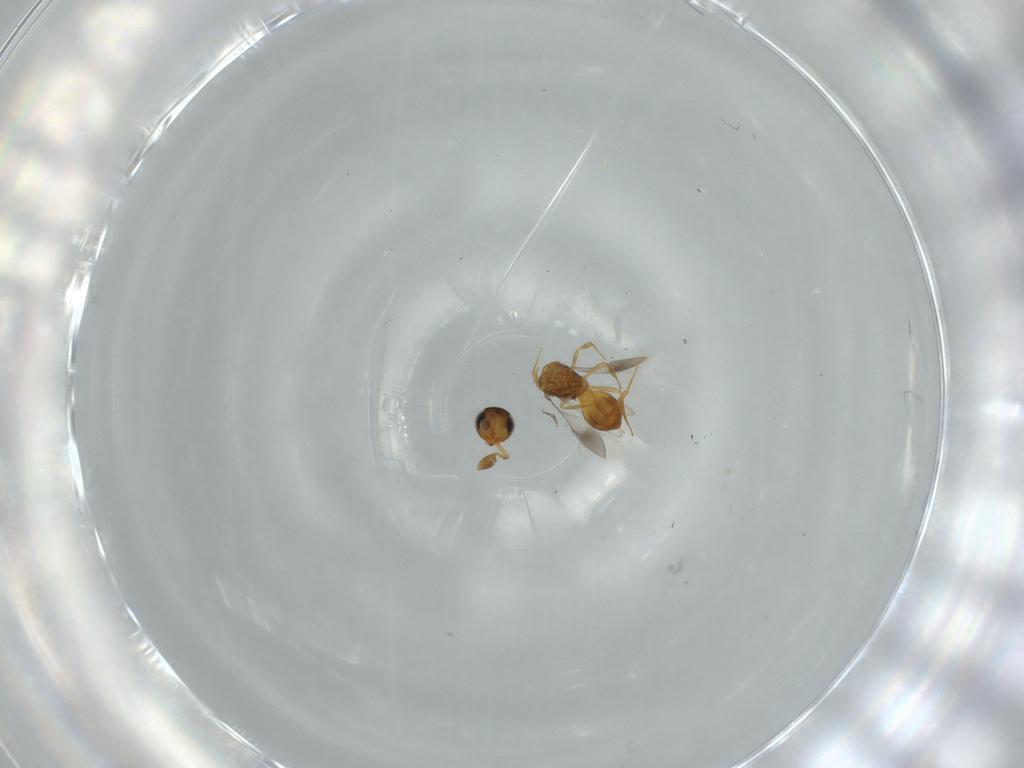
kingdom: Animalia
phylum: Arthropoda
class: Insecta
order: Hymenoptera
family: Scelionidae
